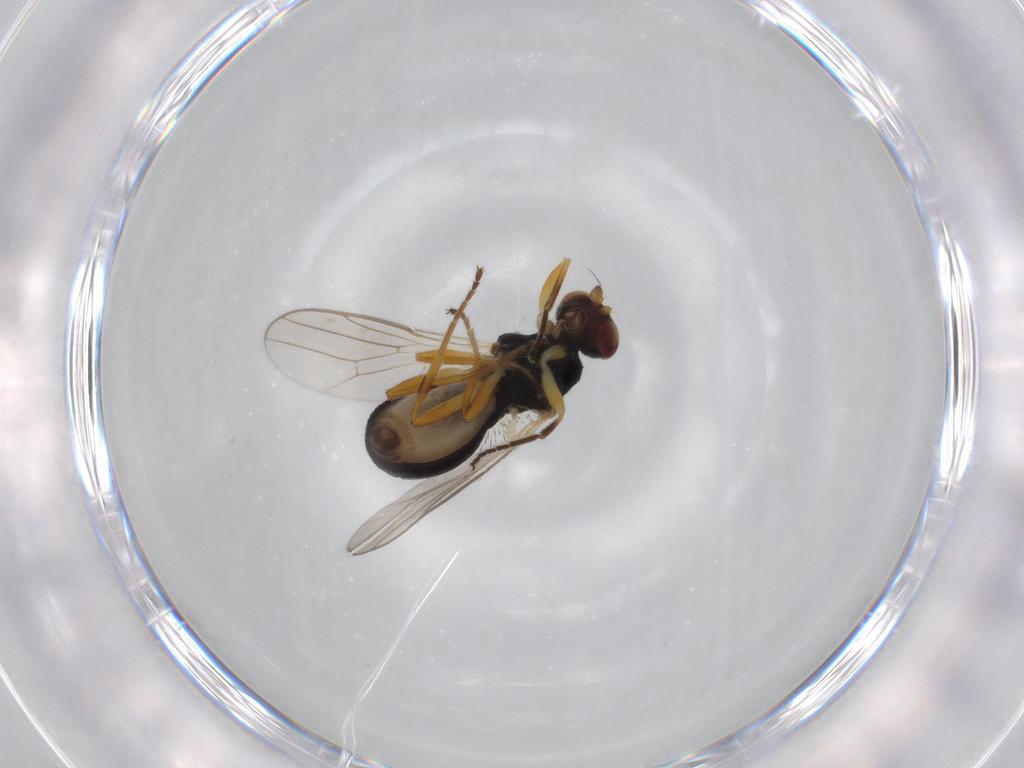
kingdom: Animalia
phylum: Arthropoda
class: Insecta
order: Diptera
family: Chloropidae
